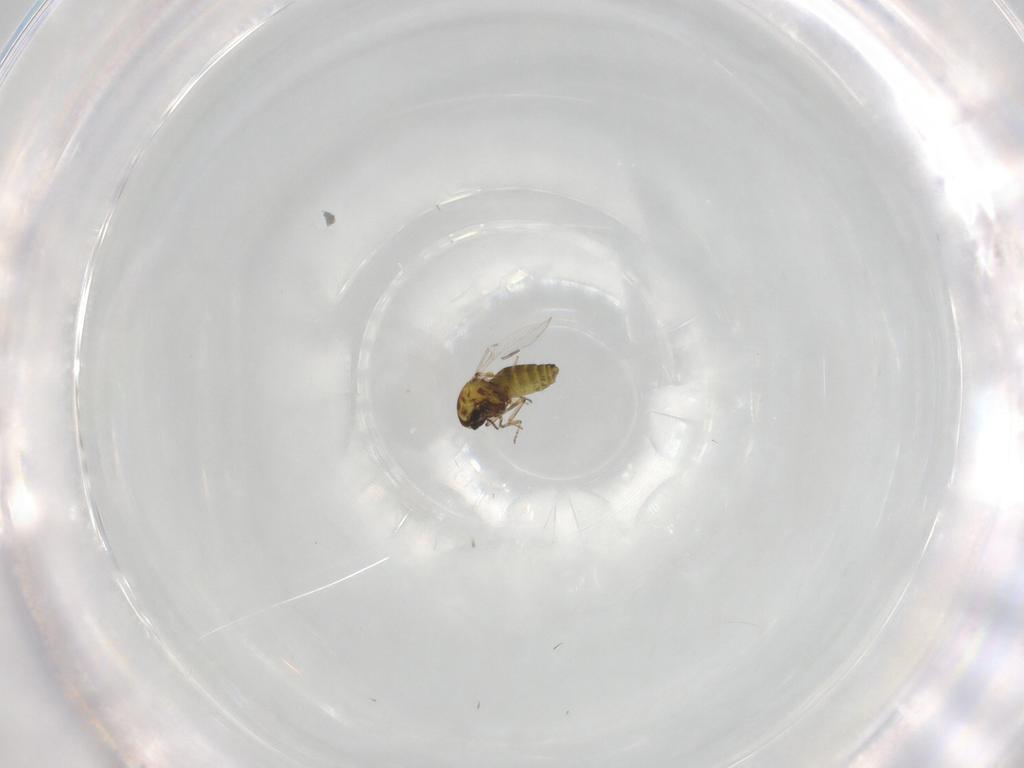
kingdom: Animalia
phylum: Arthropoda
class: Insecta
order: Diptera
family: Ceratopogonidae
